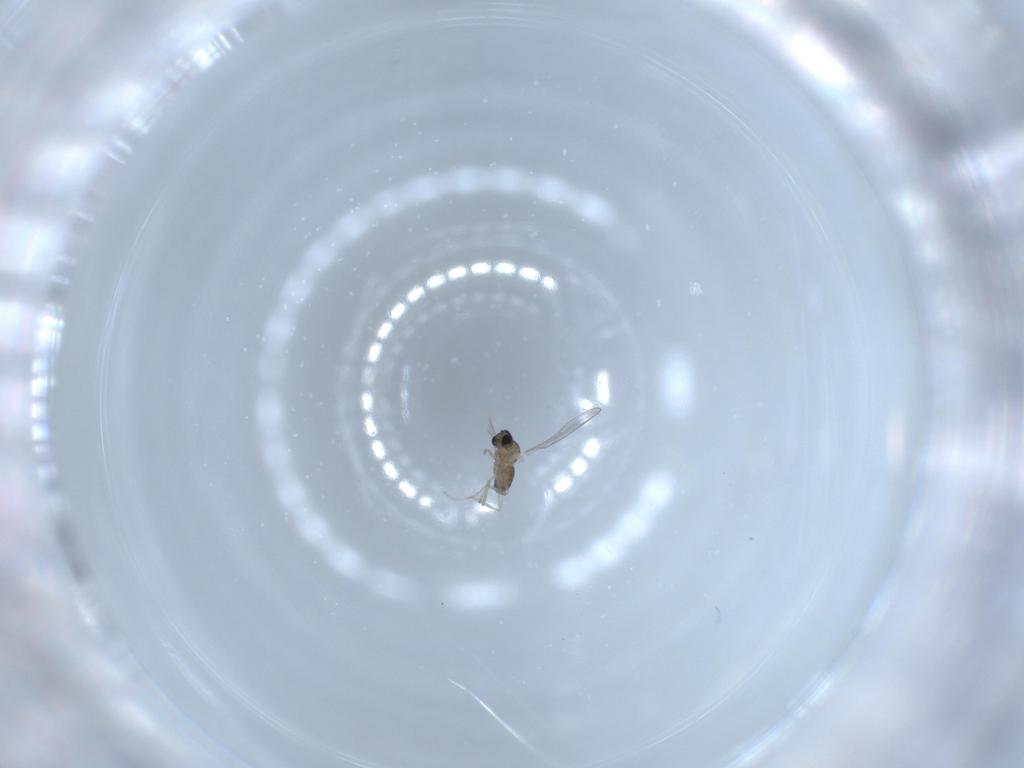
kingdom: Animalia
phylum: Arthropoda
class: Insecta
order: Diptera
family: Cecidomyiidae
